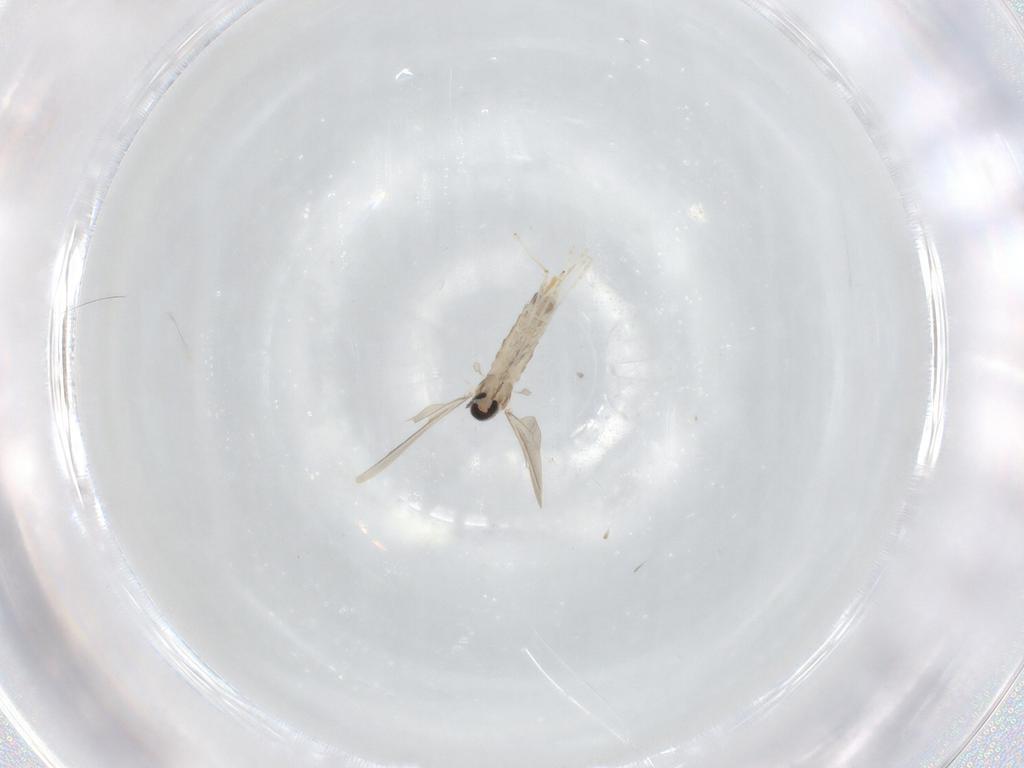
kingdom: Animalia
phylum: Arthropoda
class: Insecta
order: Diptera
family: Cecidomyiidae
